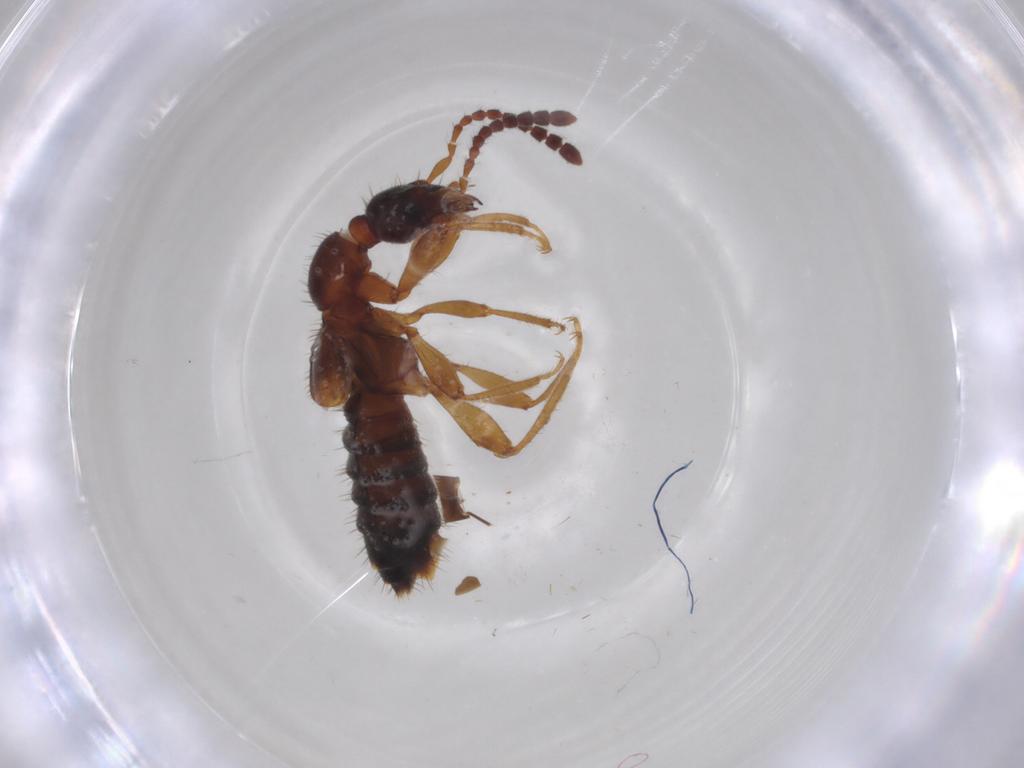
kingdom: Animalia
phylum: Arthropoda
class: Insecta
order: Coleoptera
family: Staphylinidae
